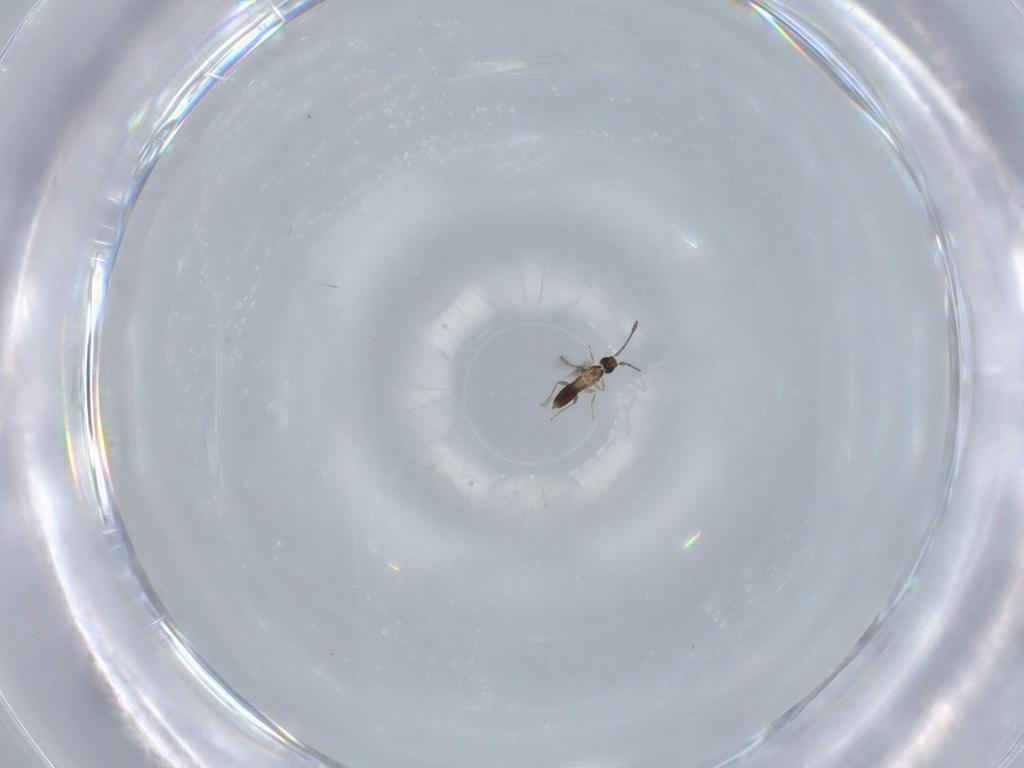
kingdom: Animalia
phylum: Arthropoda
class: Insecta
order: Hymenoptera
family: Mymaridae
